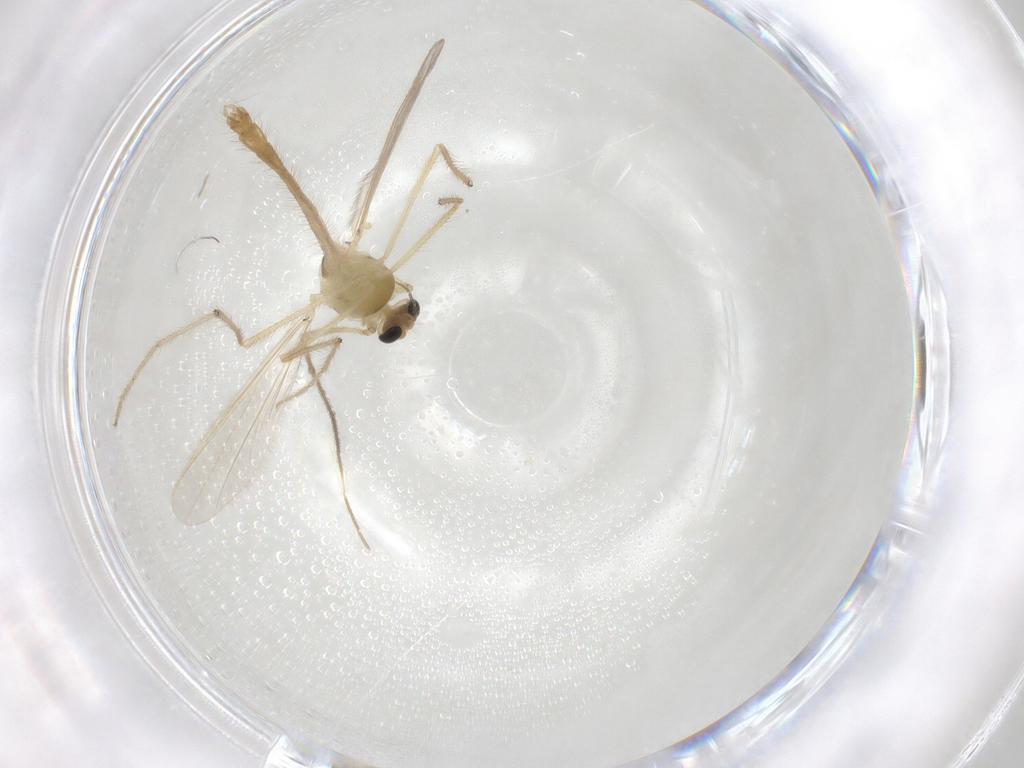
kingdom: Animalia
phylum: Arthropoda
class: Insecta
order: Diptera
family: Chironomidae
